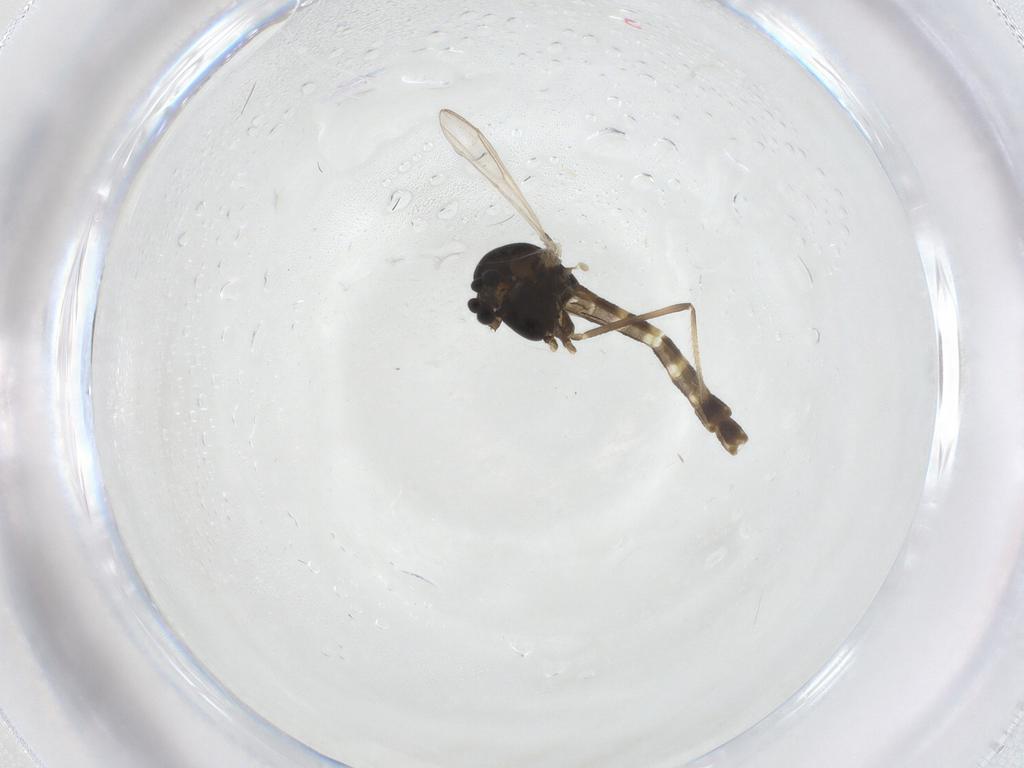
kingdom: Animalia
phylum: Arthropoda
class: Insecta
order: Diptera
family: Chironomidae
